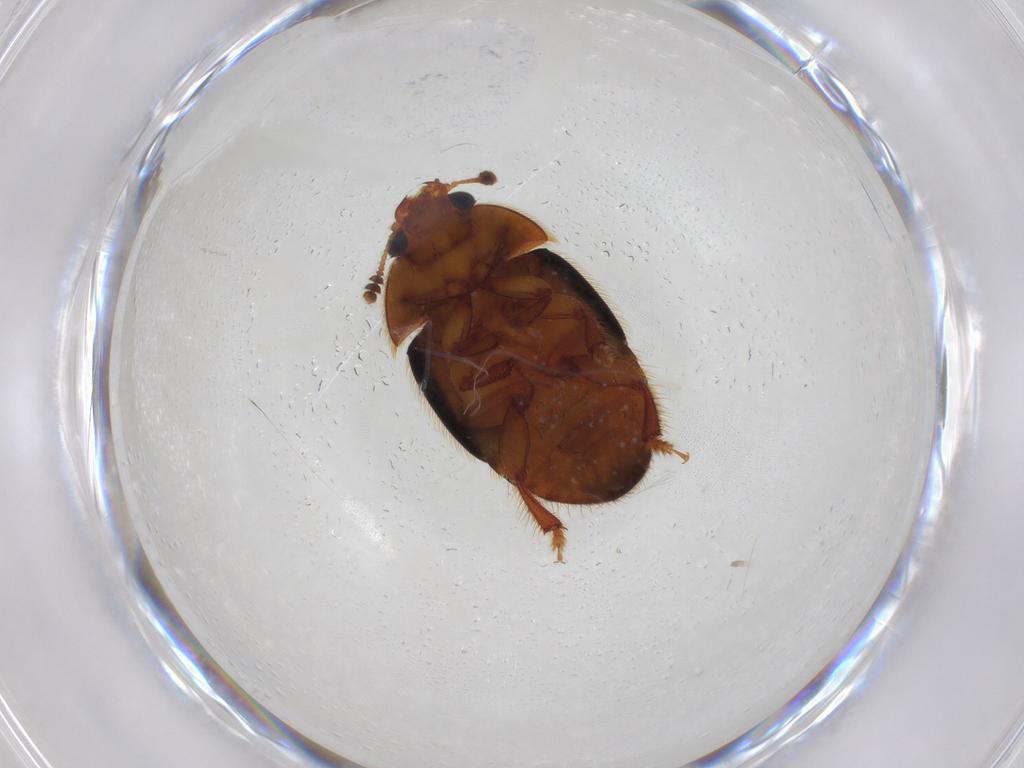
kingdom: Animalia
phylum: Arthropoda
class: Insecta
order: Coleoptera
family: Nitidulidae
